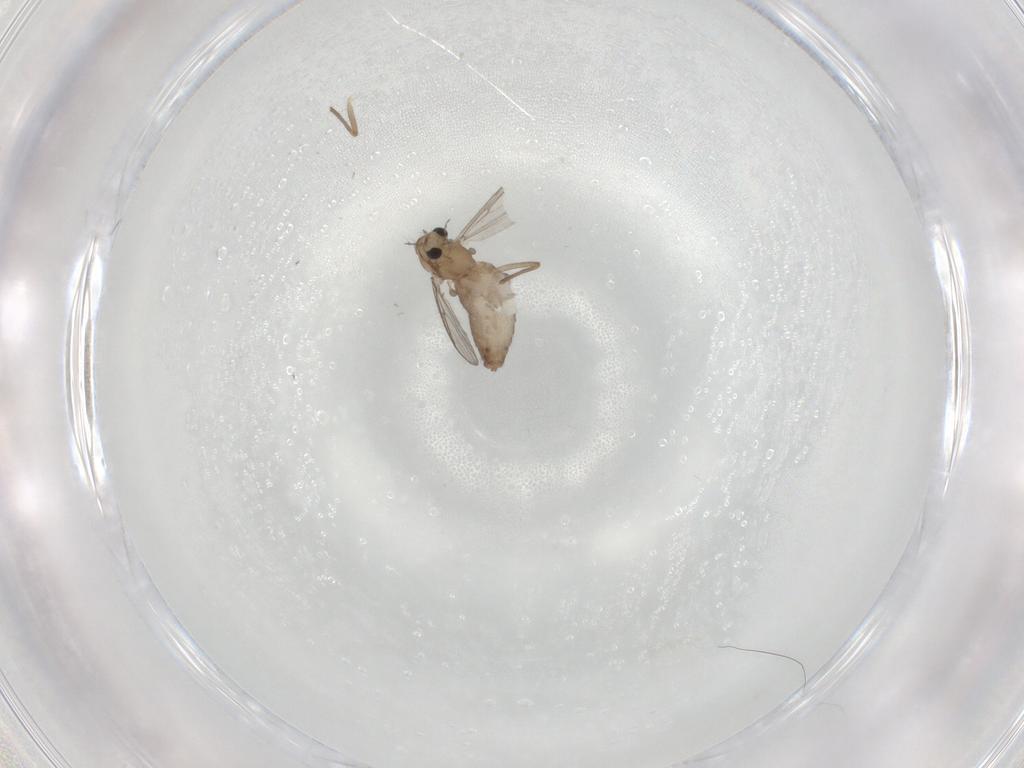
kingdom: Animalia
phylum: Arthropoda
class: Insecta
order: Diptera
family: Chironomidae
